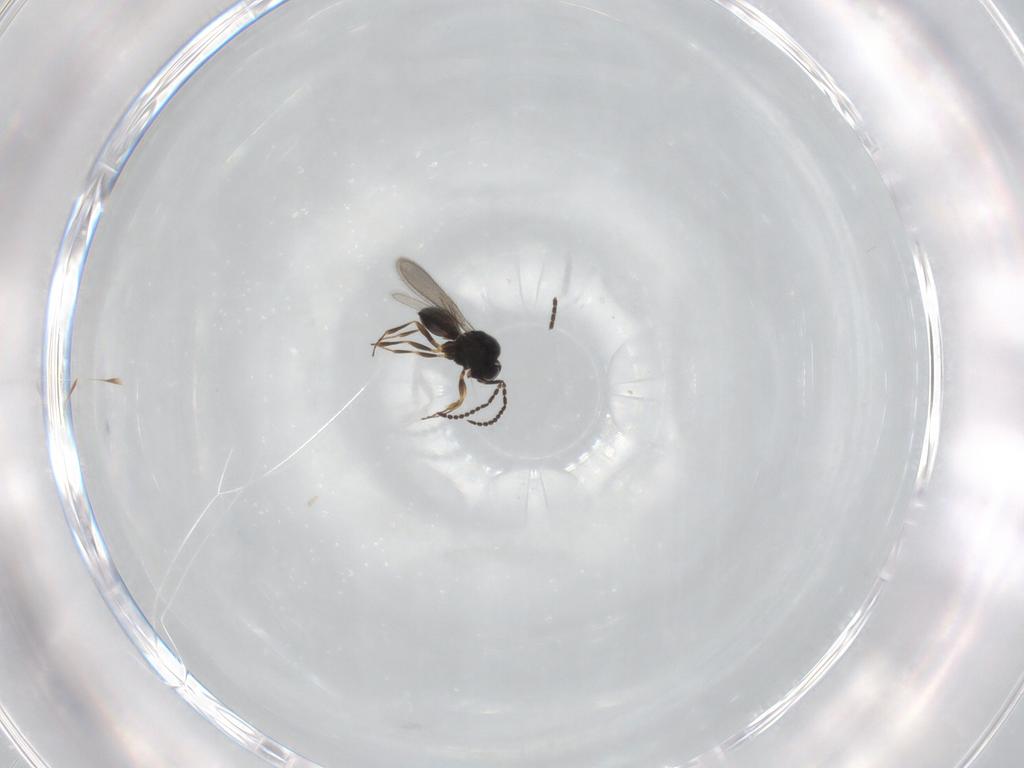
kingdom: Animalia
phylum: Arthropoda
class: Insecta
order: Hymenoptera
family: Scelionidae
